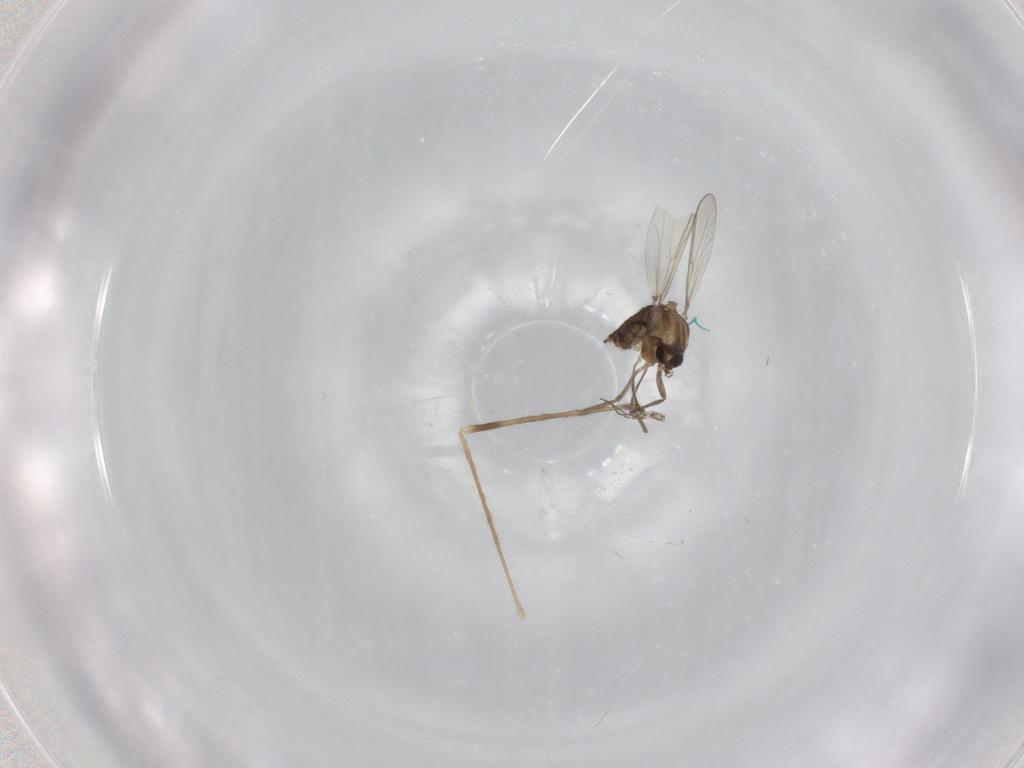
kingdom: Animalia
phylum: Arthropoda
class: Insecta
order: Diptera
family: Chironomidae
